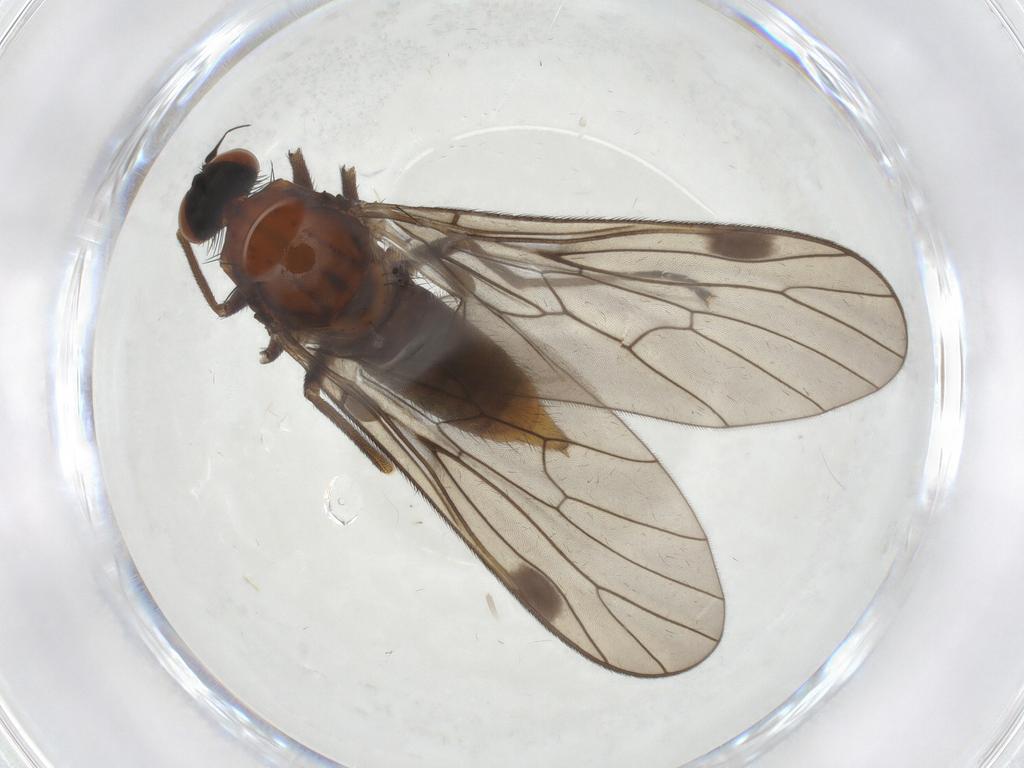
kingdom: Animalia
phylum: Arthropoda
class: Insecta
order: Diptera
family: Empididae
